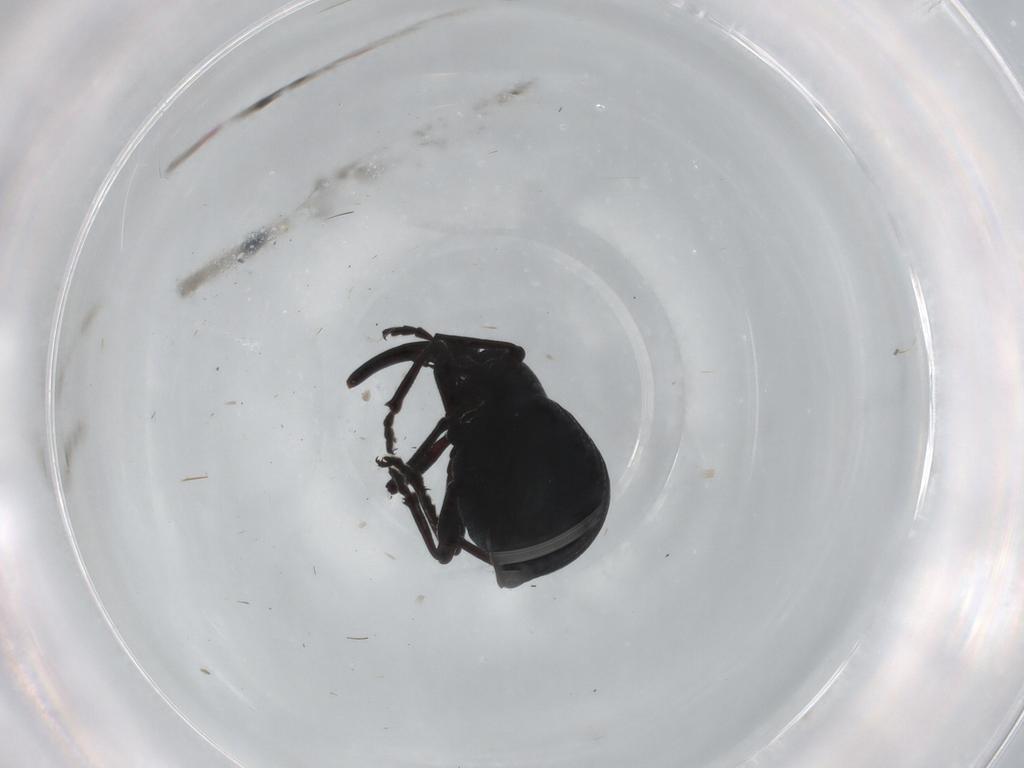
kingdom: Animalia
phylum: Arthropoda
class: Insecta
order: Coleoptera
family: Apionidae
